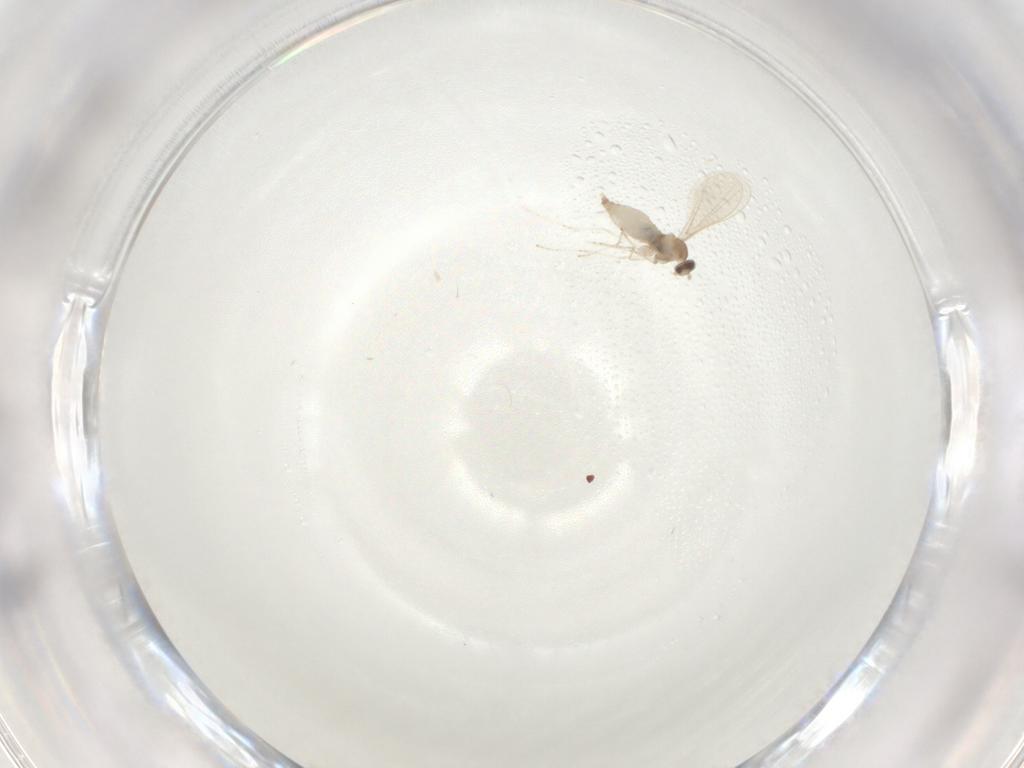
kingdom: Animalia
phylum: Arthropoda
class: Insecta
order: Diptera
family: Cecidomyiidae
